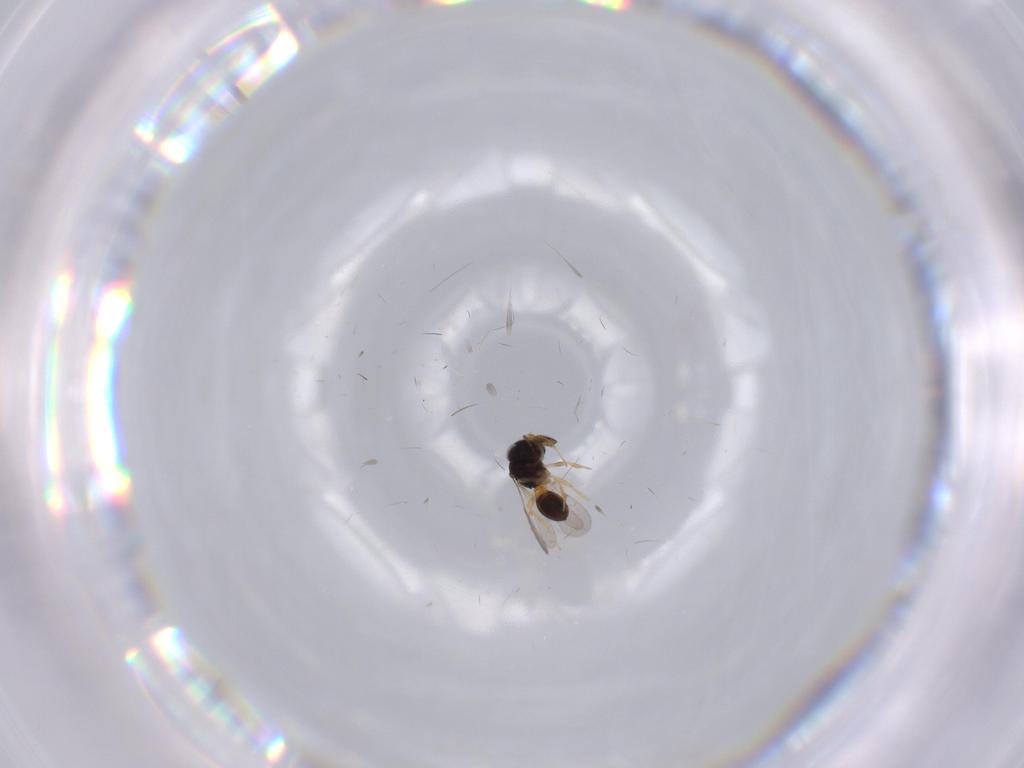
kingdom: Animalia
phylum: Arthropoda
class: Insecta
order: Hymenoptera
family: Scelionidae
